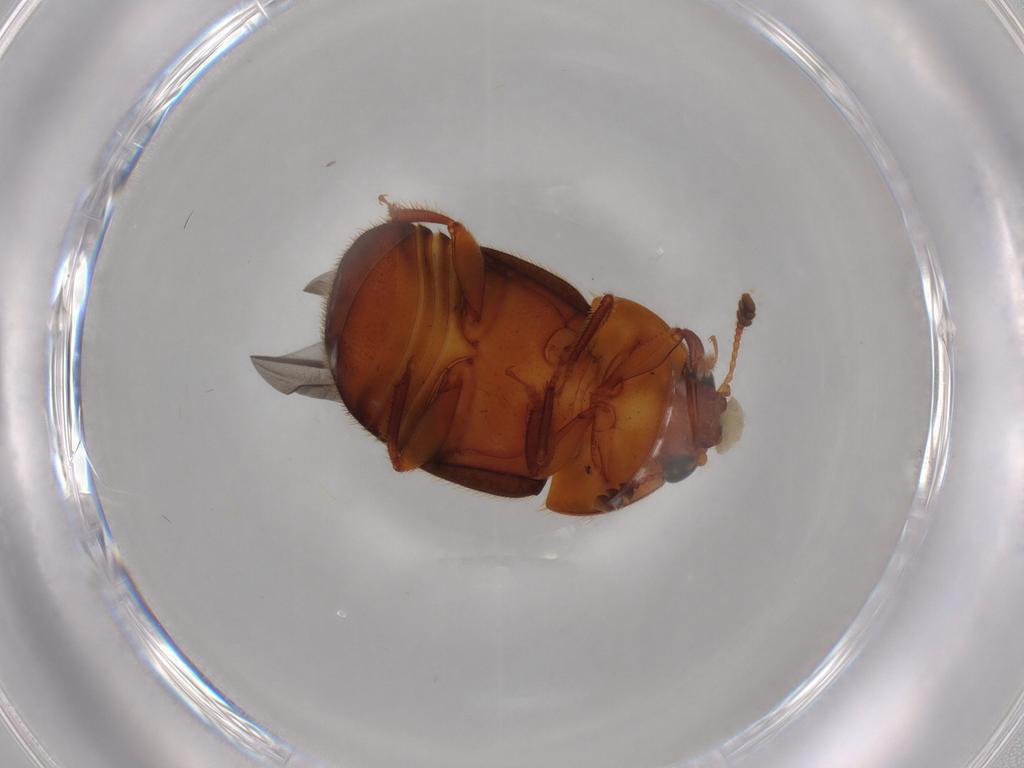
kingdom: Animalia
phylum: Arthropoda
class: Insecta
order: Coleoptera
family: Nitidulidae
